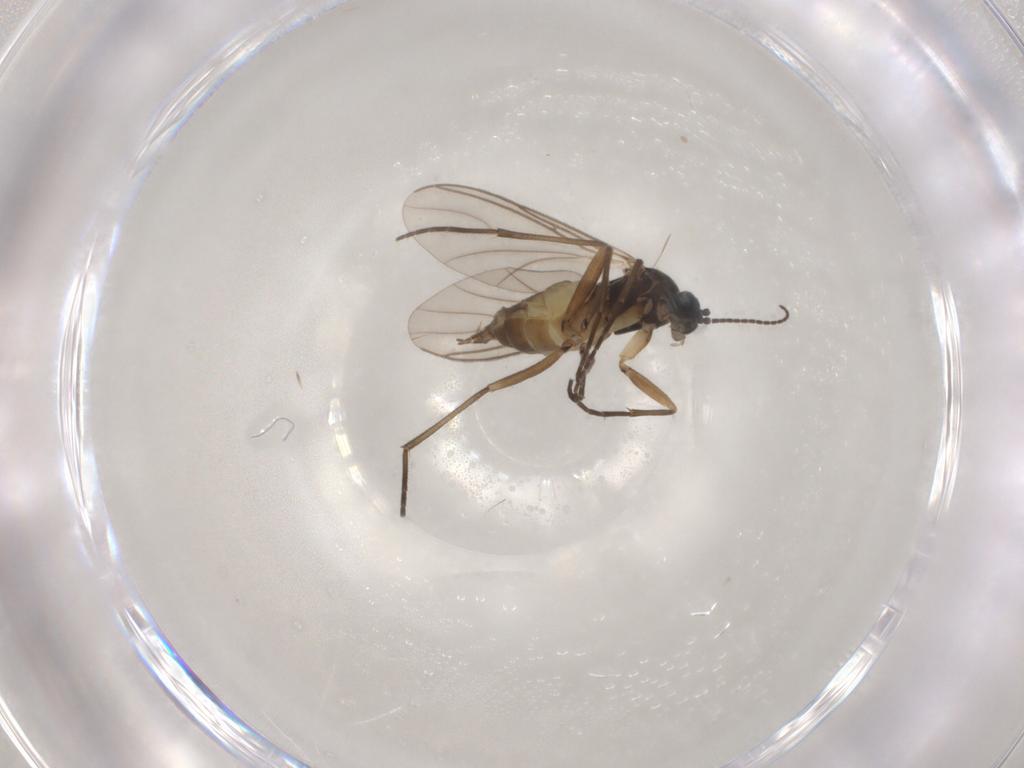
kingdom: Animalia
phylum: Arthropoda
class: Insecta
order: Diptera
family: Sciaridae
